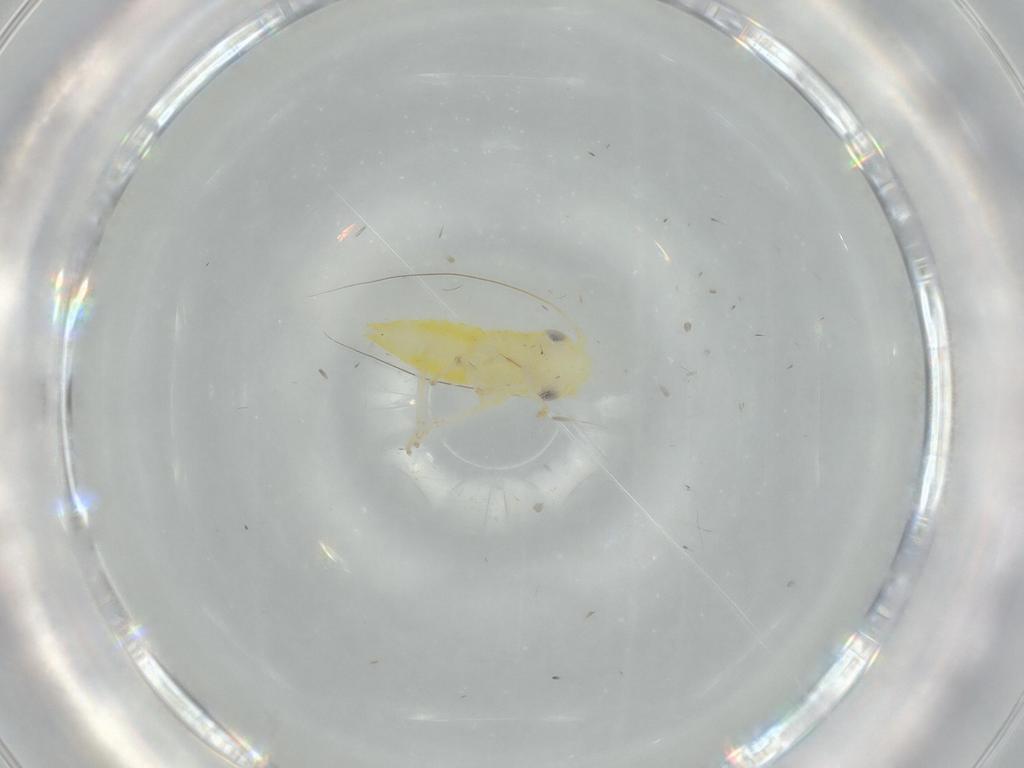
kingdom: Animalia
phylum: Arthropoda
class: Insecta
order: Hemiptera
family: Cicadellidae
